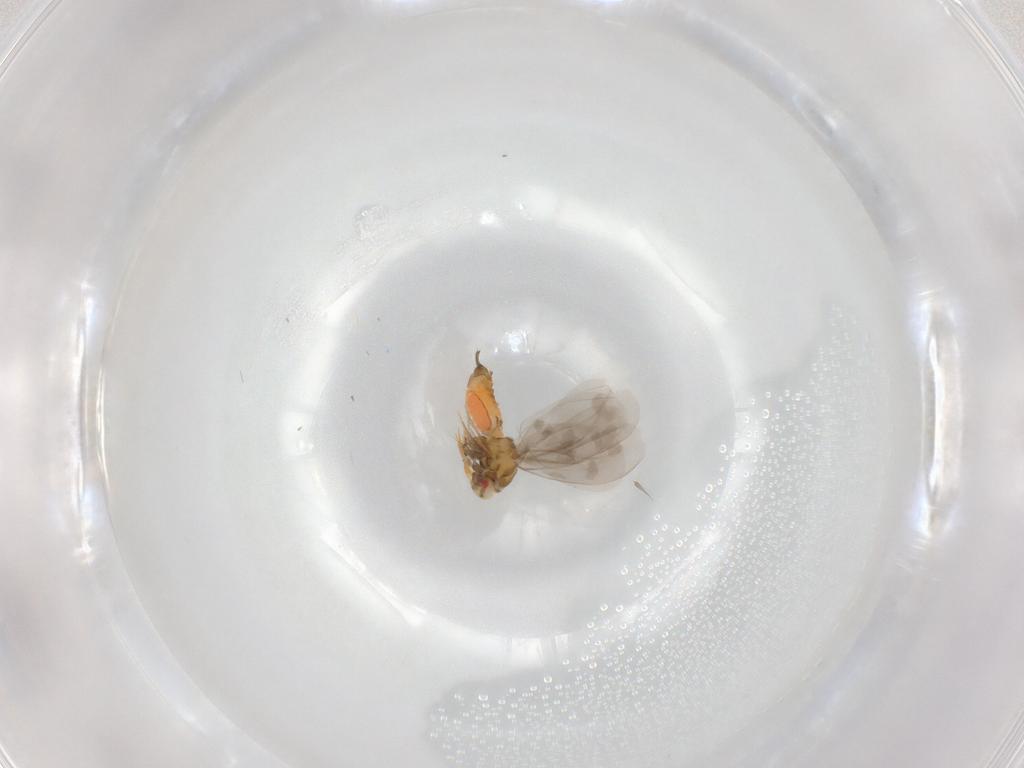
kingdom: Animalia
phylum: Arthropoda
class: Insecta
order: Hemiptera
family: Aleyrodidae
